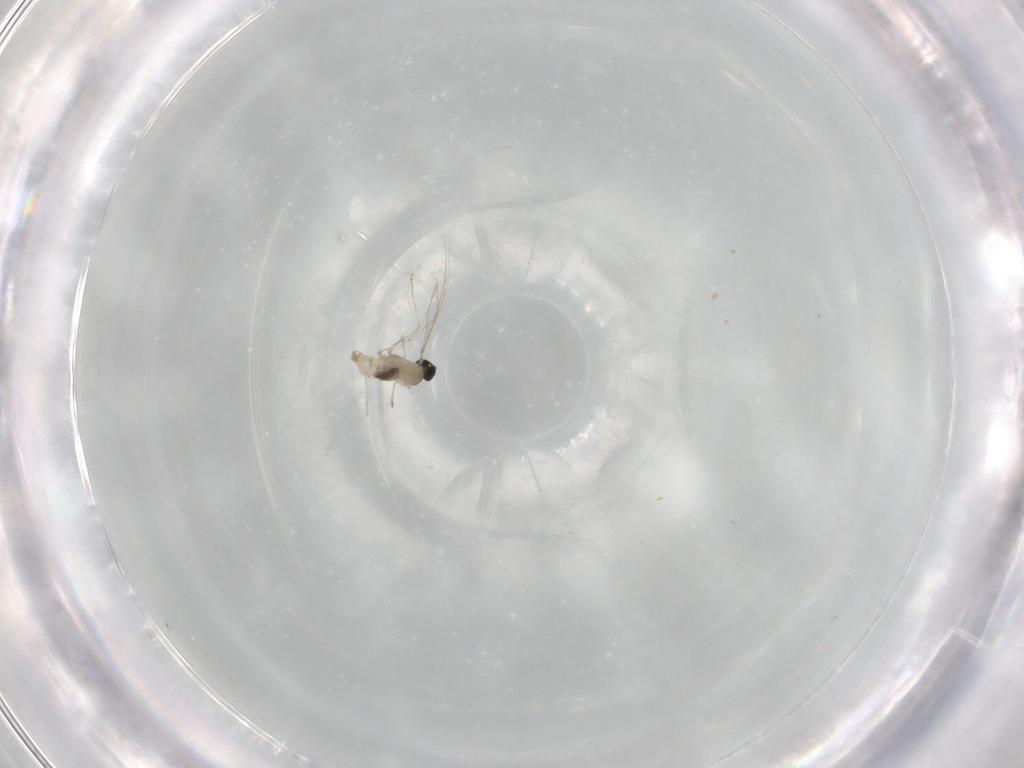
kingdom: Animalia
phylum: Arthropoda
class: Insecta
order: Diptera
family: Cecidomyiidae
